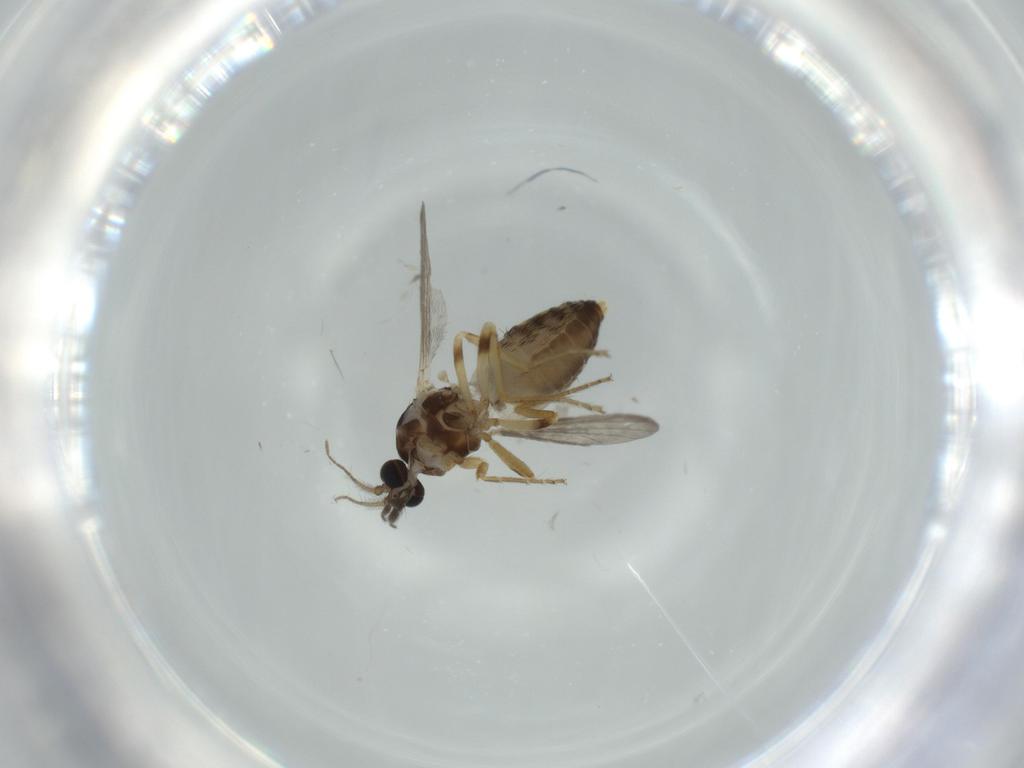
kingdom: Animalia
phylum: Arthropoda
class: Insecta
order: Diptera
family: Ceratopogonidae
